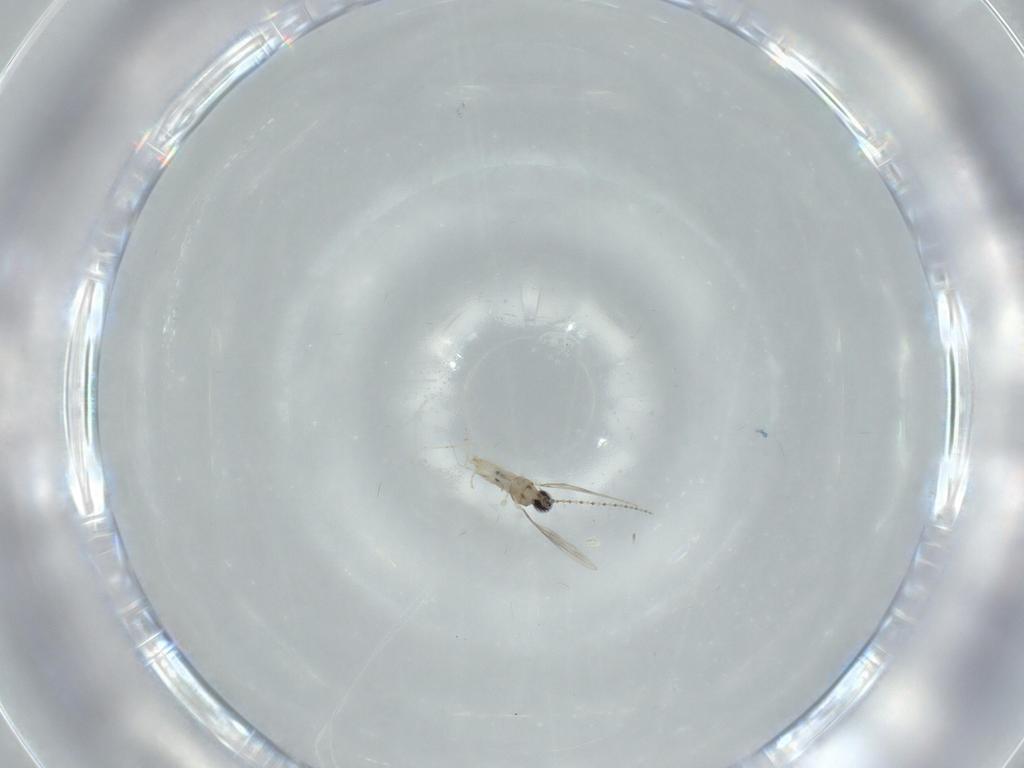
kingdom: Animalia
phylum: Arthropoda
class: Insecta
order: Diptera
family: Cecidomyiidae
